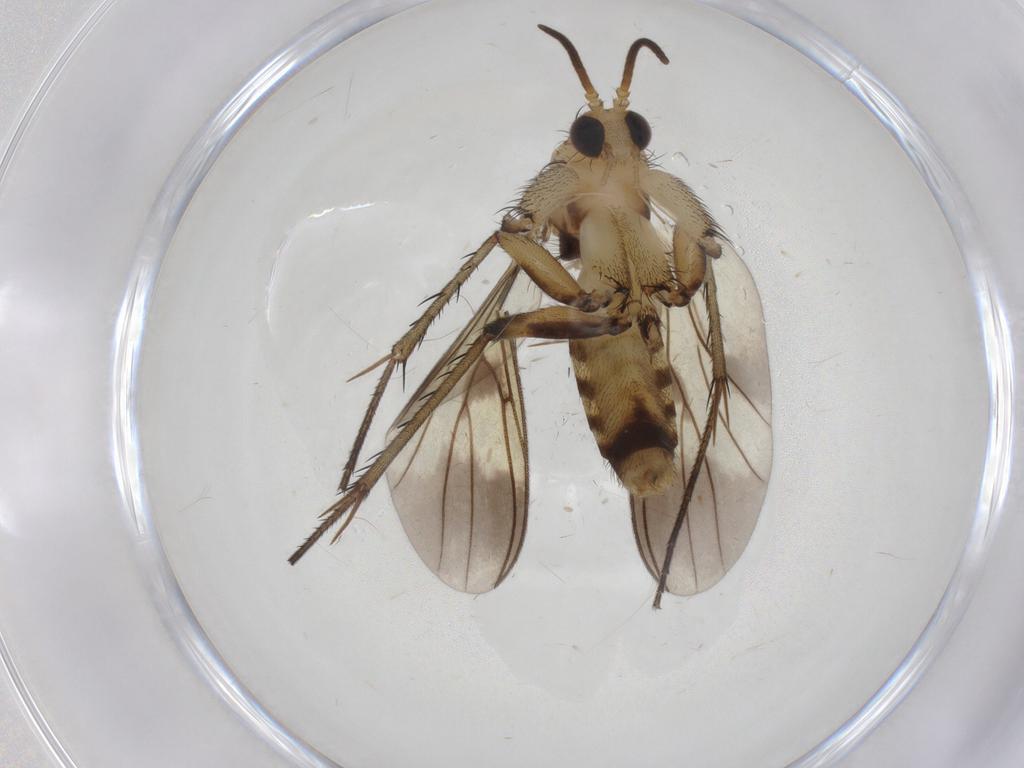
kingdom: Animalia
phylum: Arthropoda
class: Insecta
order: Diptera
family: Mycetophilidae
